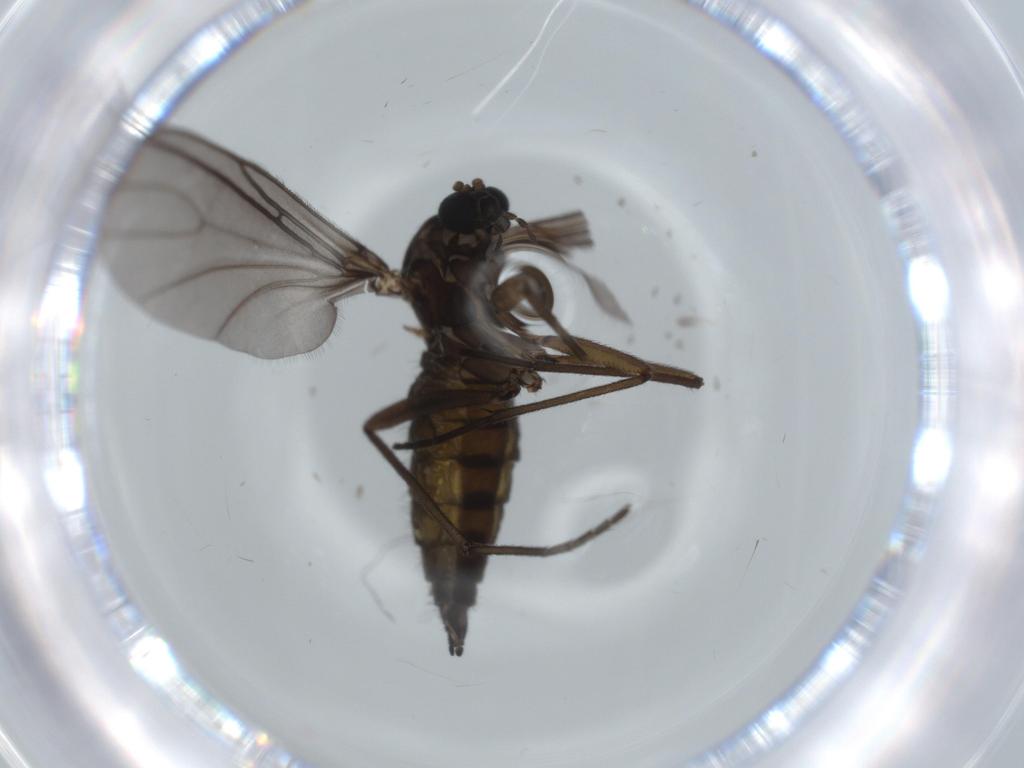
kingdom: Animalia
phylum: Arthropoda
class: Insecta
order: Diptera
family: Sciaridae
